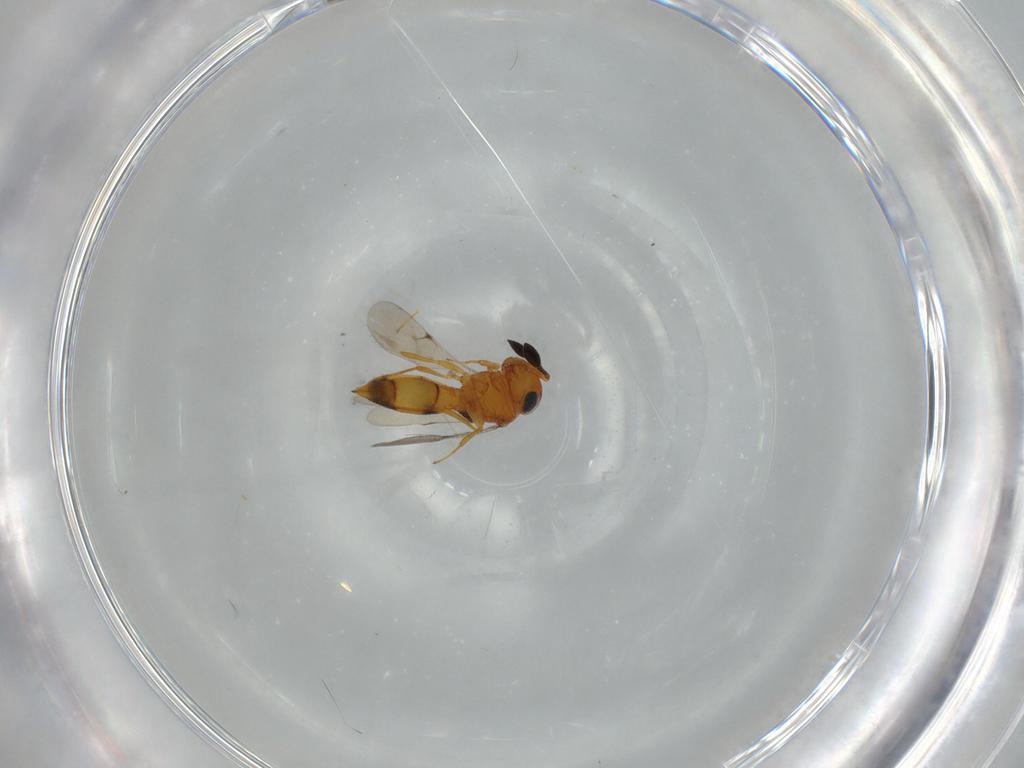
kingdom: Animalia
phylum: Arthropoda
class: Insecta
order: Hymenoptera
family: Scelionidae
